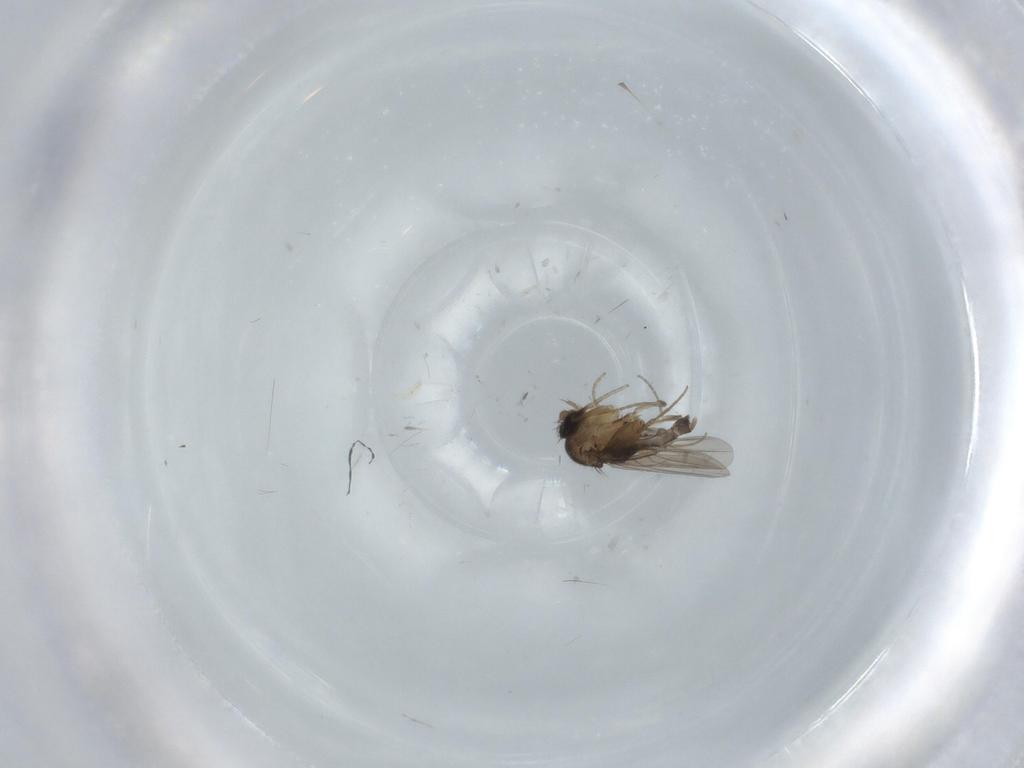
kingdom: Animalia
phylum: Arthropoda
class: Insecta
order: Diptera
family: Phoridae
